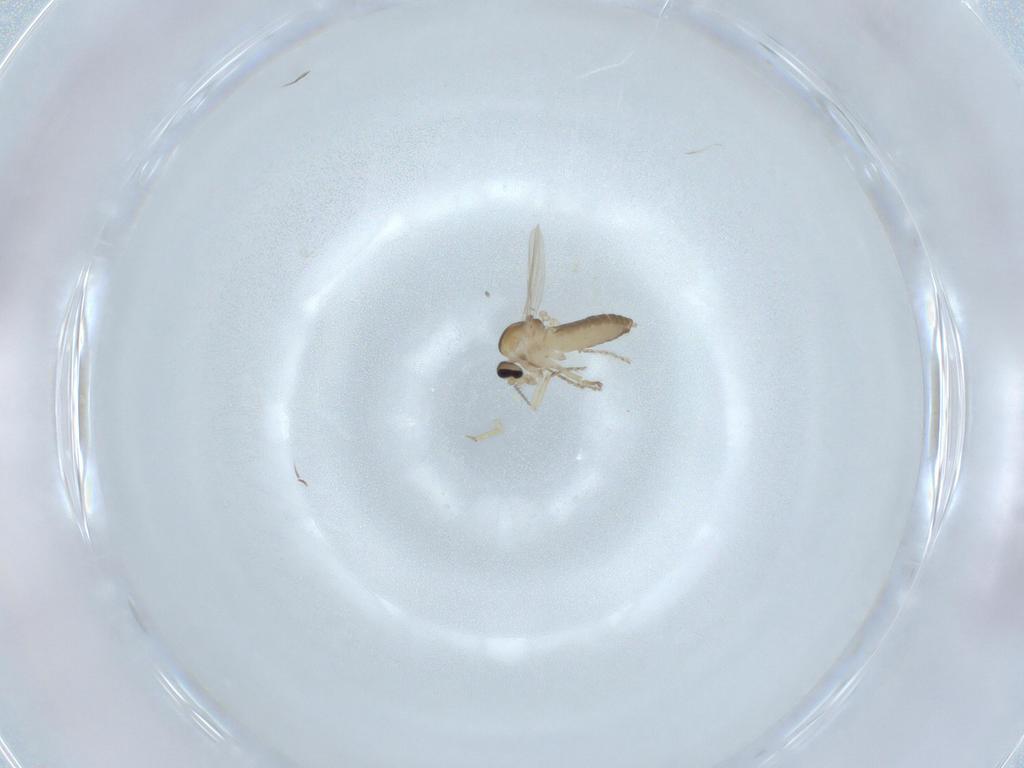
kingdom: Animalia
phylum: Arthropoda
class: Insecta
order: Diptera
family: Ceratopogonidae
